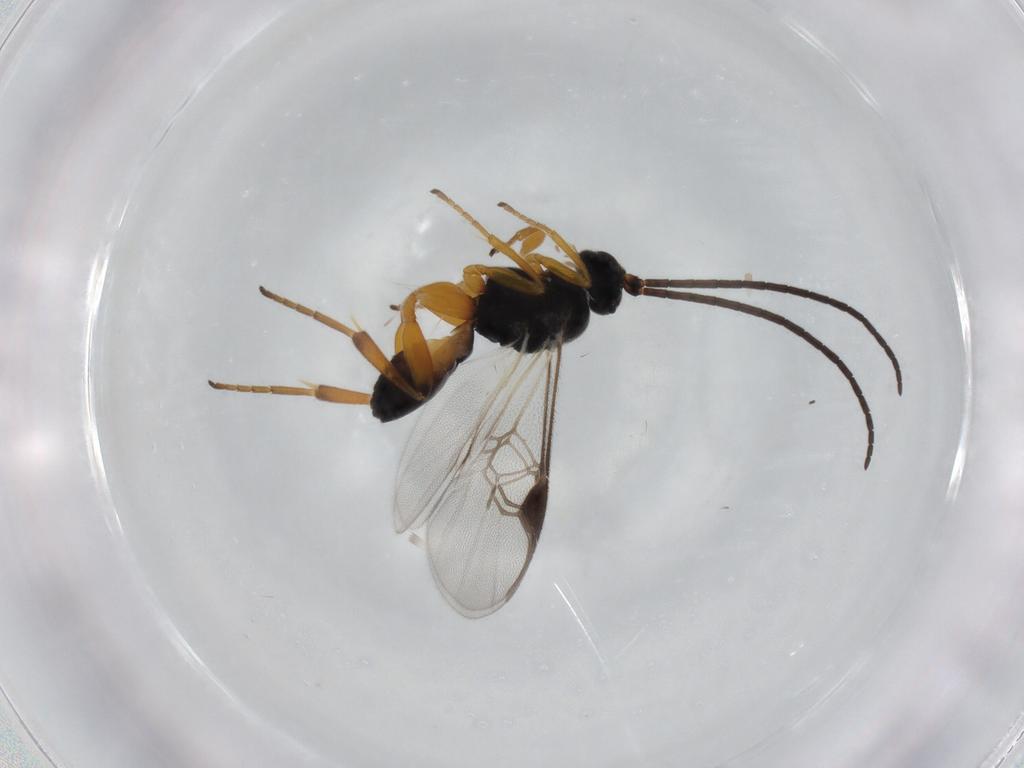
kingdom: Animalia
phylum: Arthropoda
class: Insecta
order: Hymenoptera
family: Braconidae
